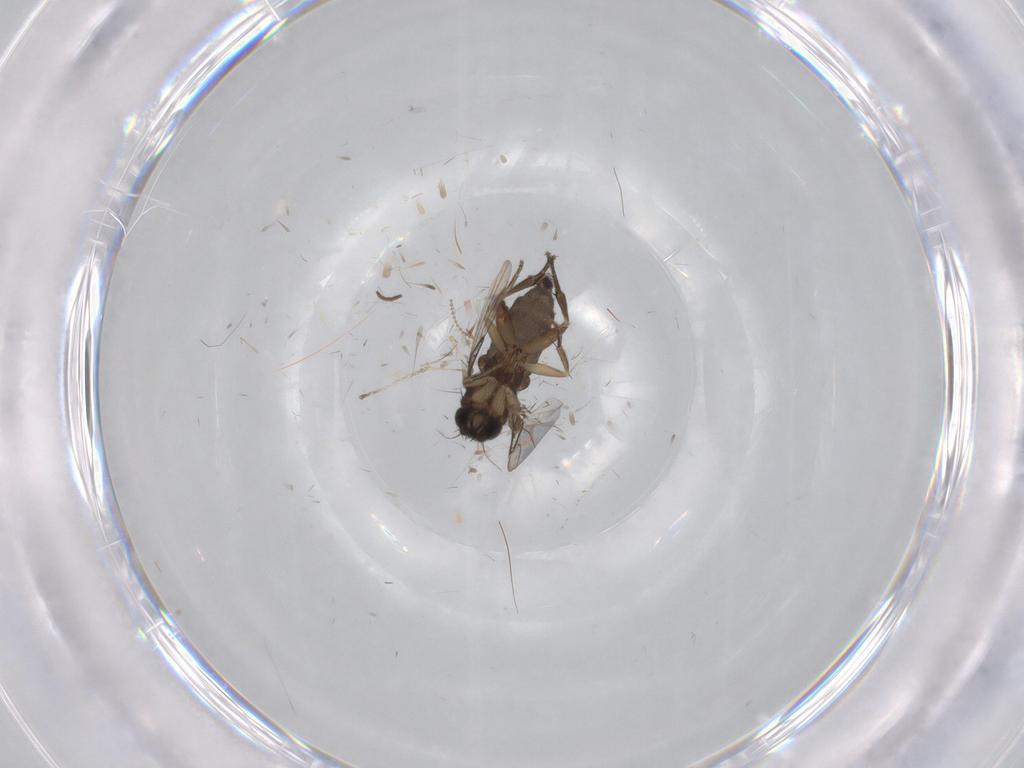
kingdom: Animalia
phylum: Arthropoda
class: Insecta
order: Diptera
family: Phoridae
